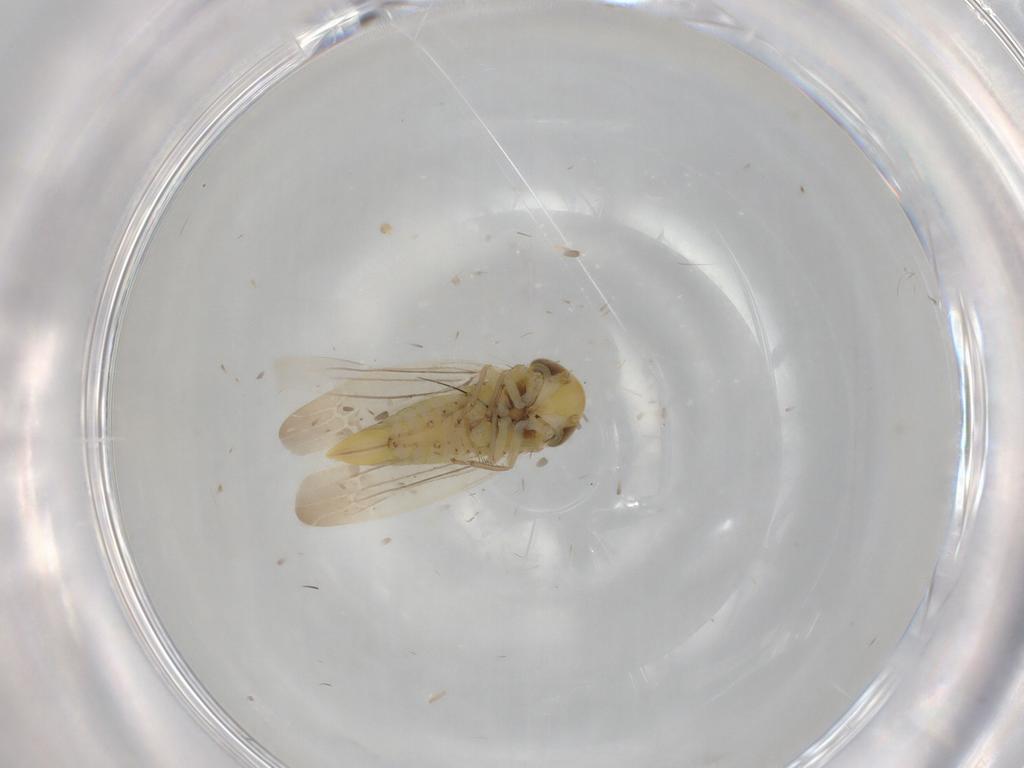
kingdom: Animalia
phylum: Arthropoda
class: Insecta
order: Hemiptera
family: Cicadellidae
